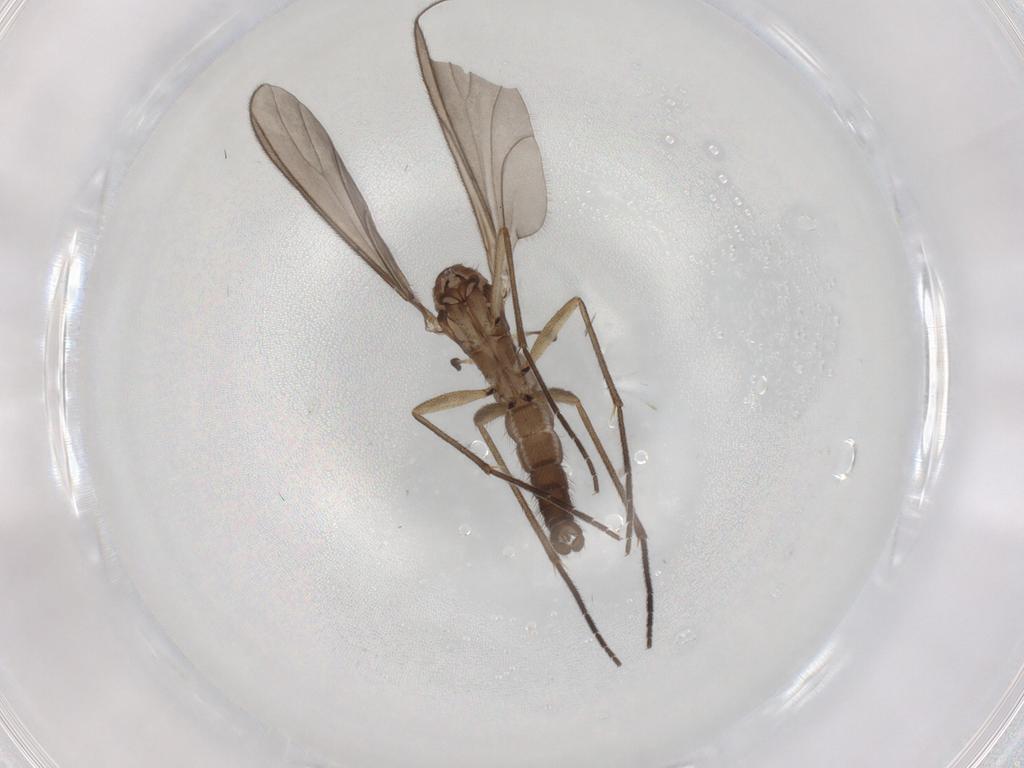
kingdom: Animalia
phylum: Arthropoda
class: Insecta
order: Diptera
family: Sciaridae
